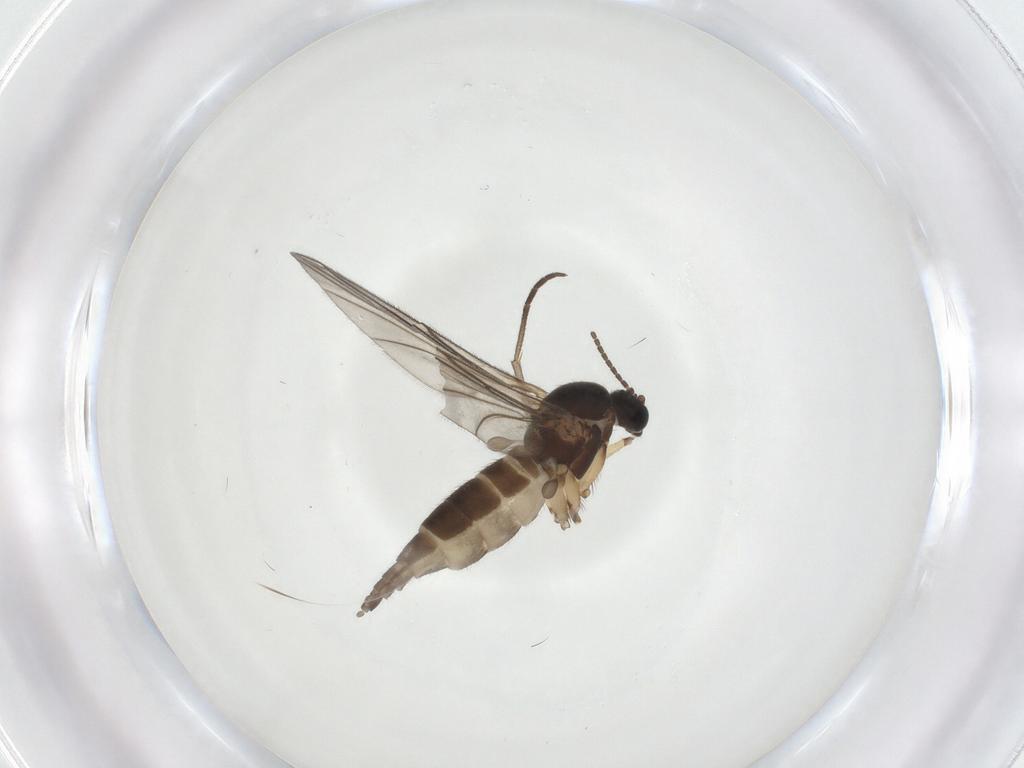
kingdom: Animalia
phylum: Arthropoda
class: Insecta
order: Diptera
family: Sciaridae
